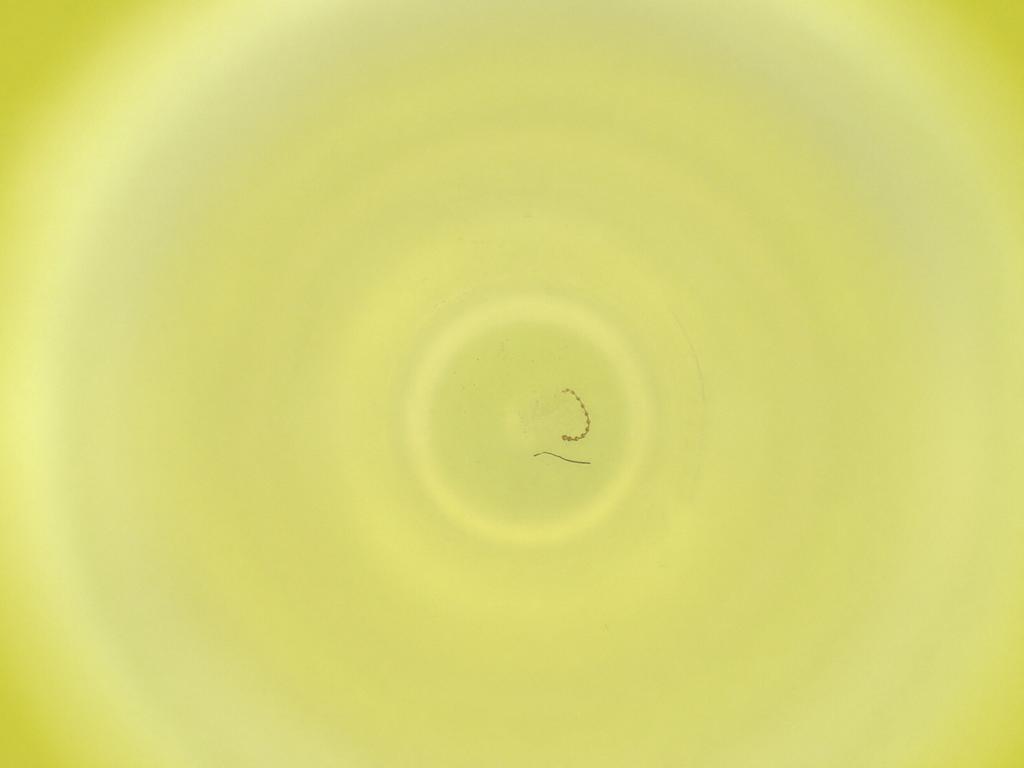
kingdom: Animalia
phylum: Arthropoda
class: Insecta
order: Diptera
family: Cecidomyiidae
